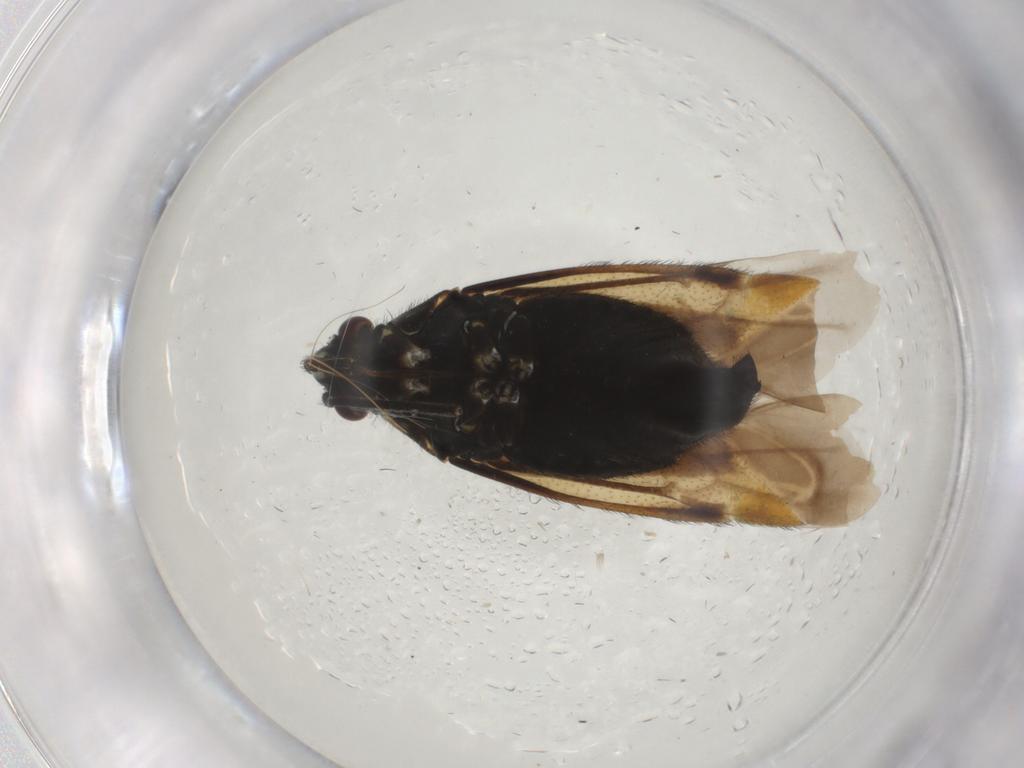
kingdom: Animalia
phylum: Arthropoda
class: Insecta
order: Hemiptera
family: Miridae
